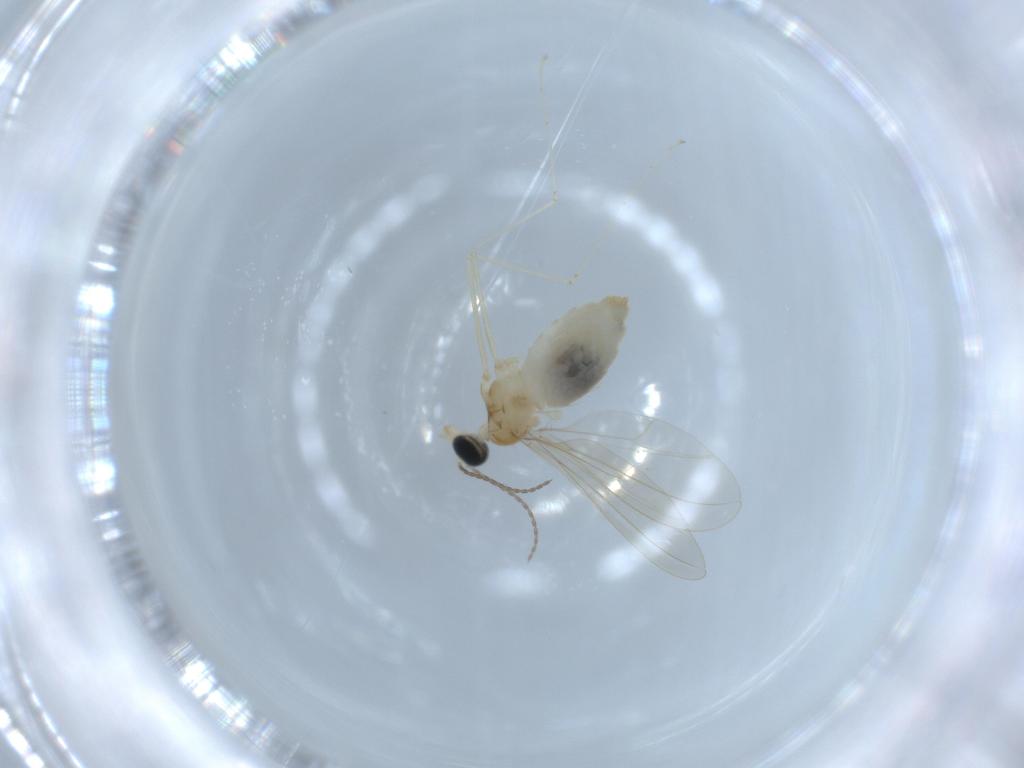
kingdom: Animalia
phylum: Arthropoda
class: Insecta
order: Diptera
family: Cecidomyiidae
